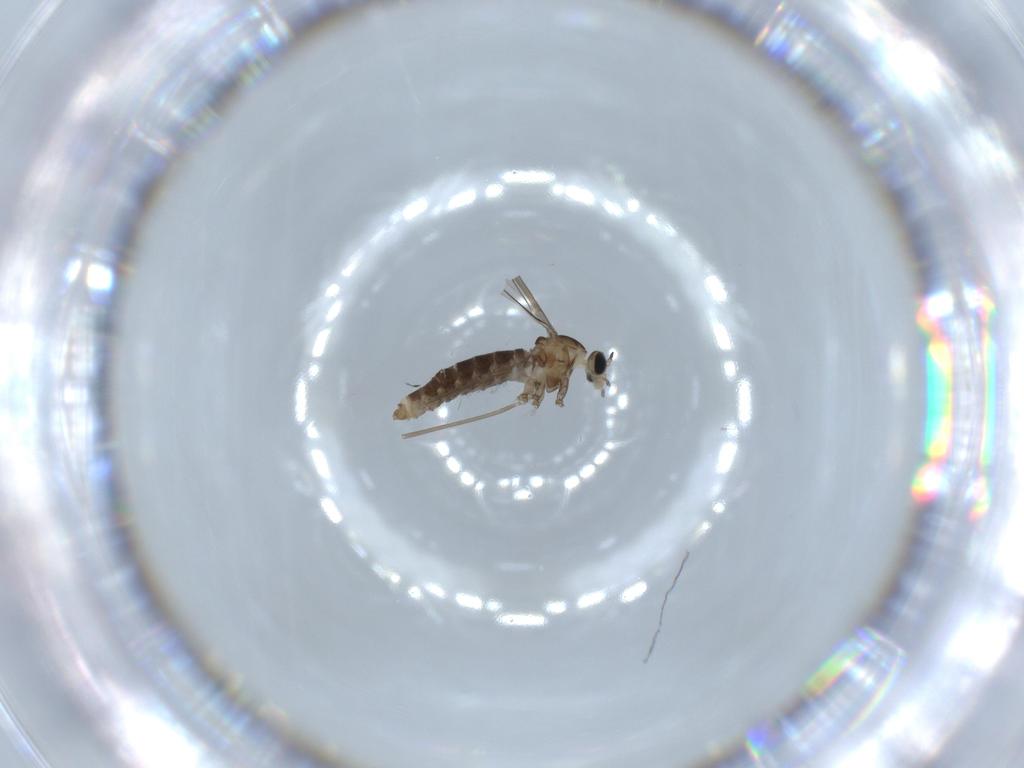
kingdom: Animalia
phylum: Arthropoda
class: Insecta
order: Diptera
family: Cecidomyiidae
